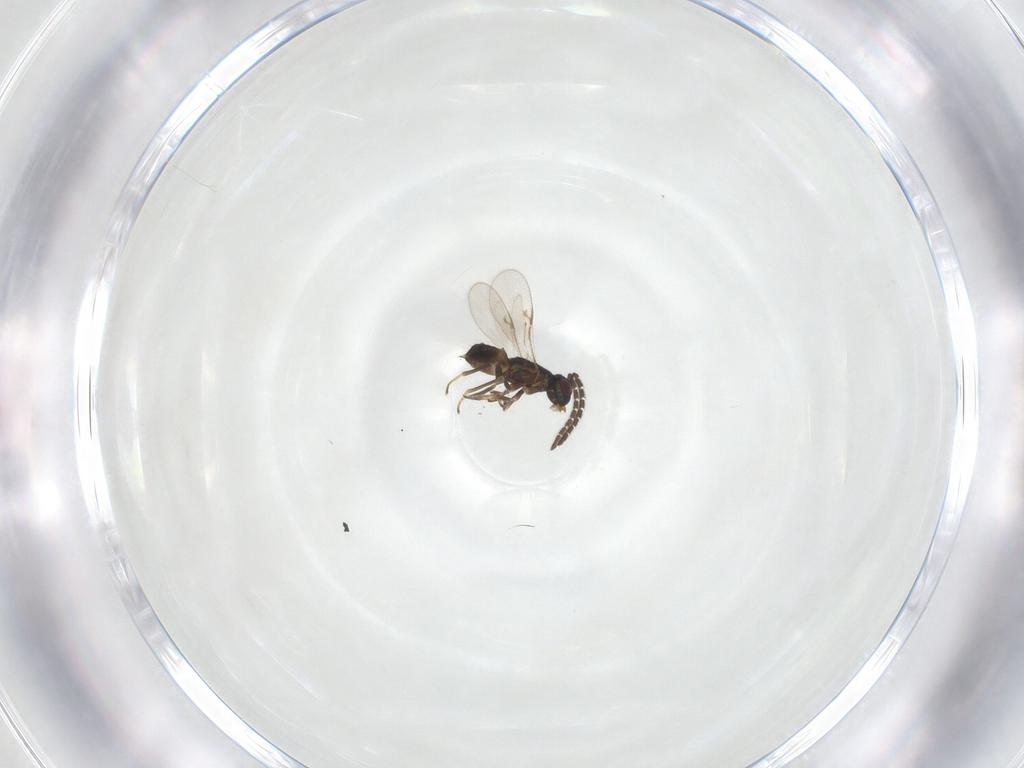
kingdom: Animalia
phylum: Arthropoda
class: Insecta
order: Hymenoptera
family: Encyrtidae
